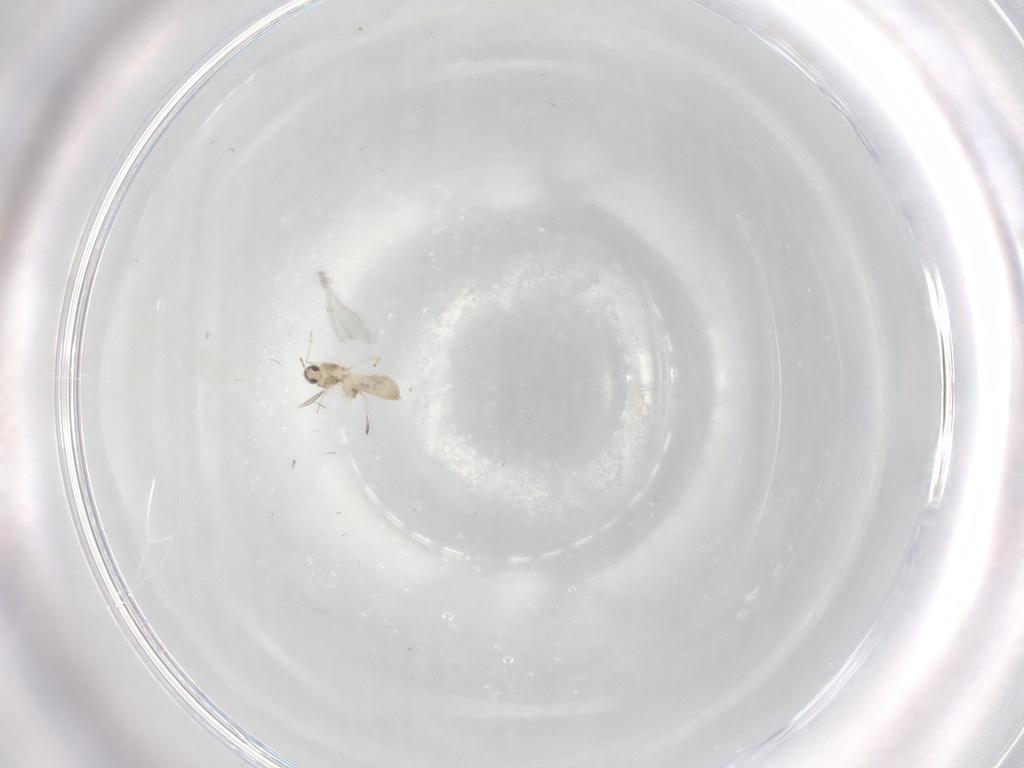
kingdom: Animalia
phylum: Arthropoda
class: Insecta
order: Diptera
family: Cecidomyiidae
